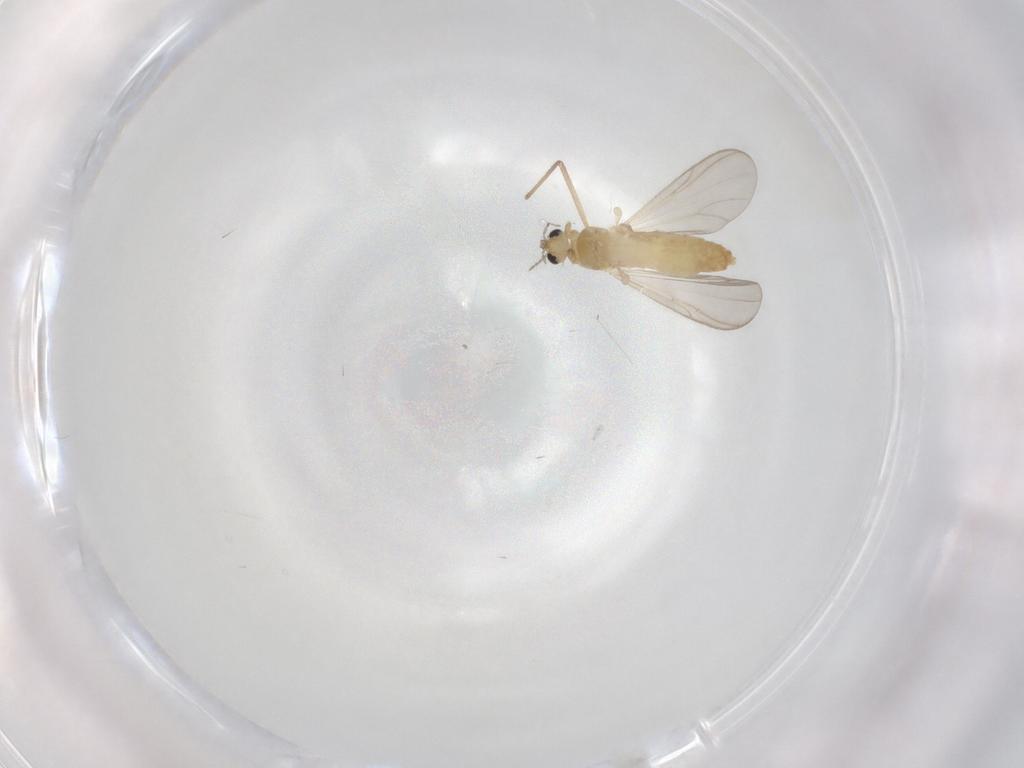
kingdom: Animalia
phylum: Arthropoda
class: Insecta
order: Diptera
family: Chironomidae
